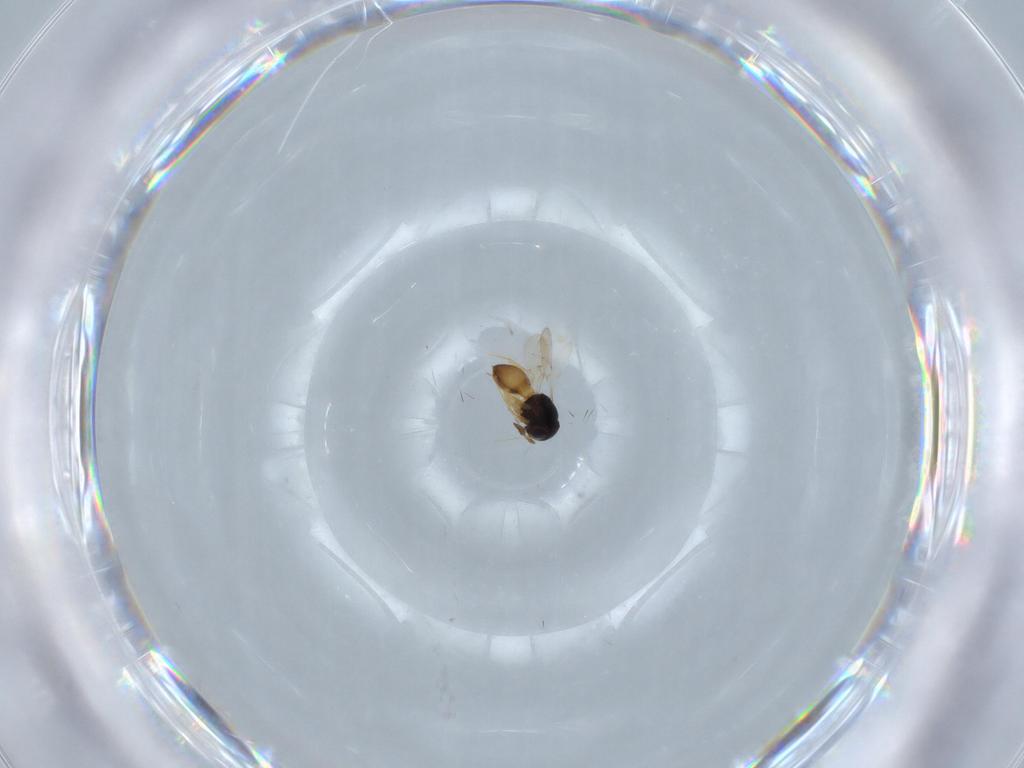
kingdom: Animalia
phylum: Arthropoda
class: Insecta
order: Hymenoptera
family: Scelionidae
